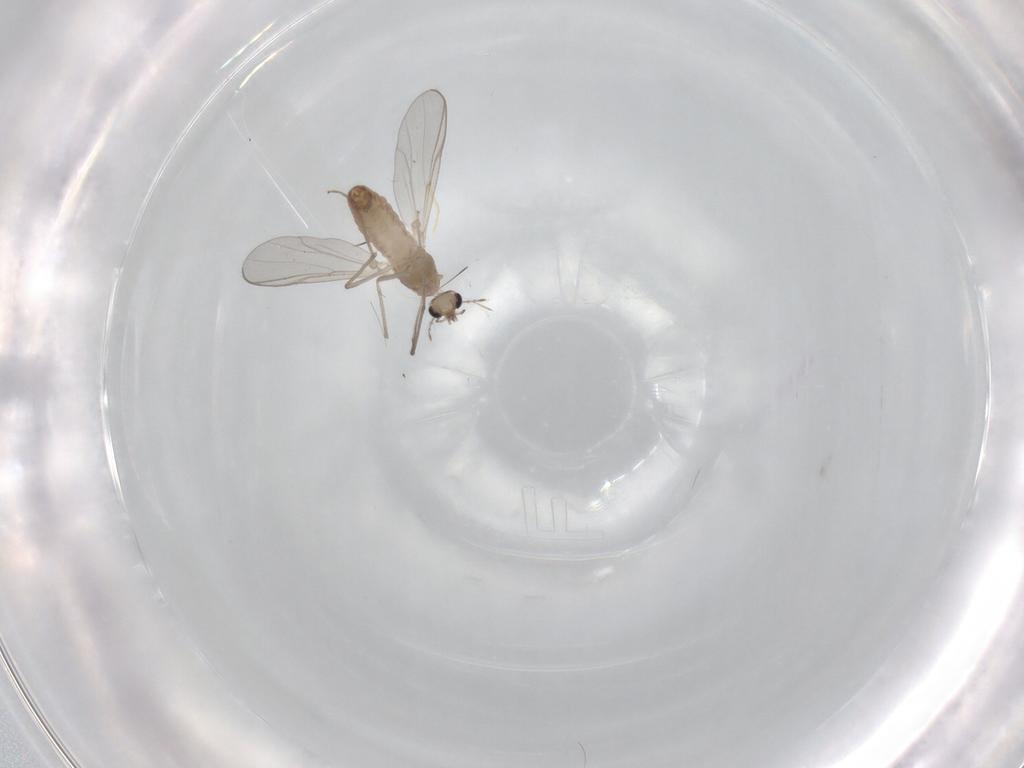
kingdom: Animalia
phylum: Arthropoda
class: Insecta
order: Diptera
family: Chironomidae
